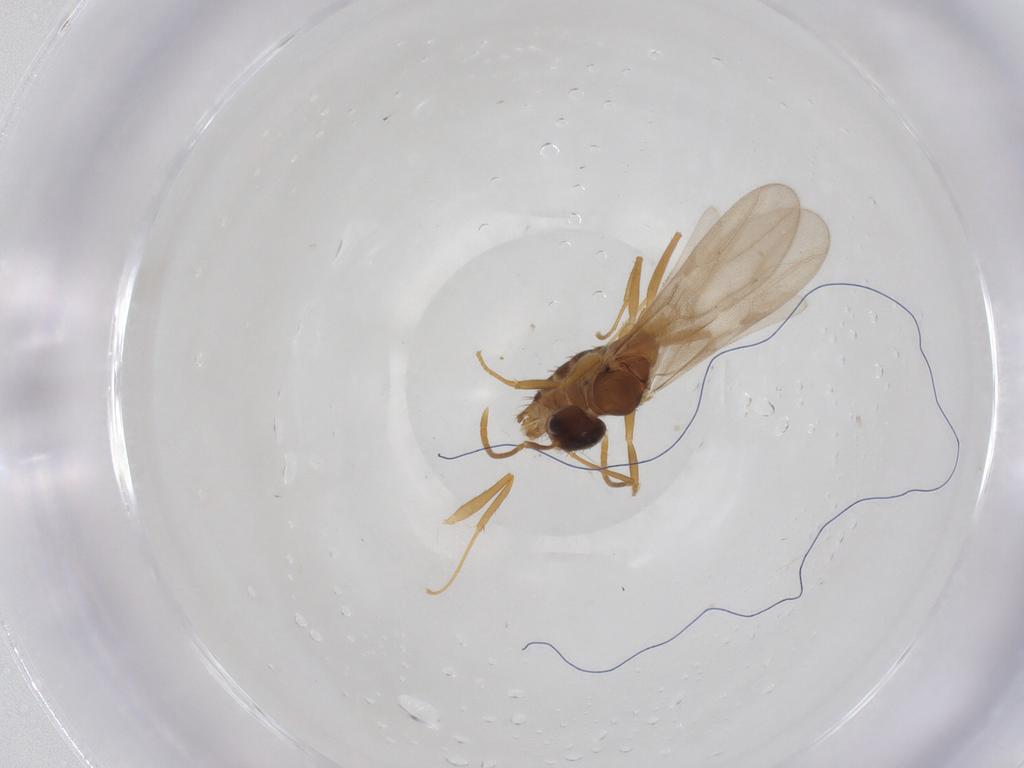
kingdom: Animalia
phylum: Arthropoda
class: Insecta
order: Hymenoptera
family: Formicidae
